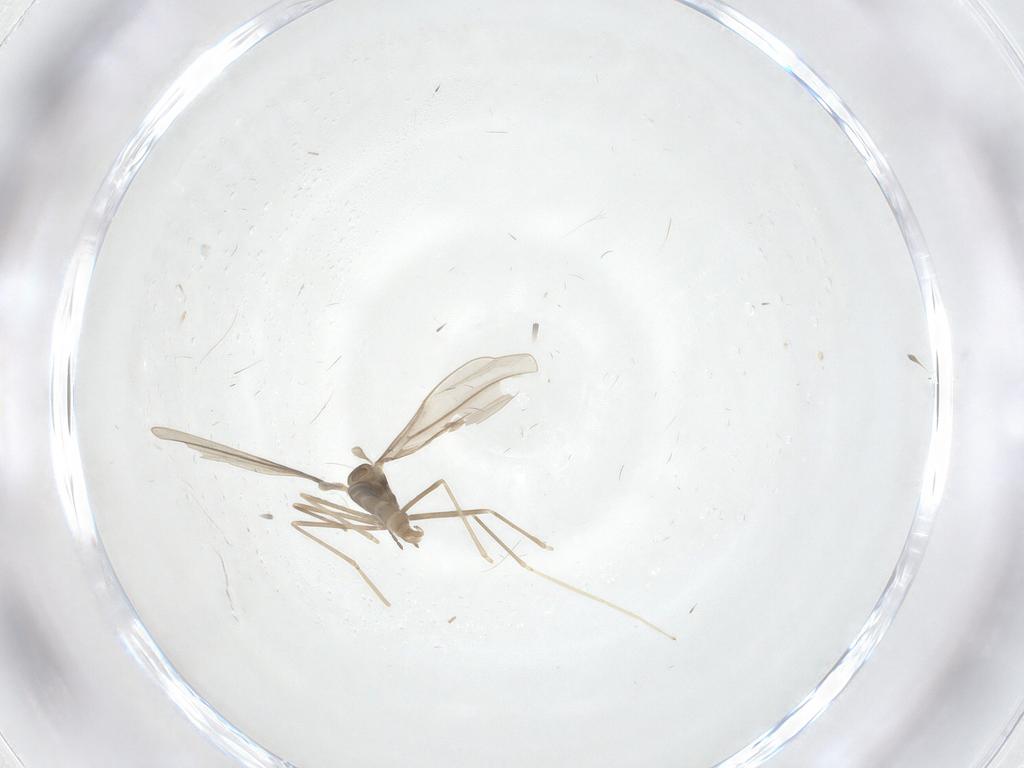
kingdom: Animalia
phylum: Arthropoda
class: Insecta
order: Diptera
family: Cecidomyiidae
